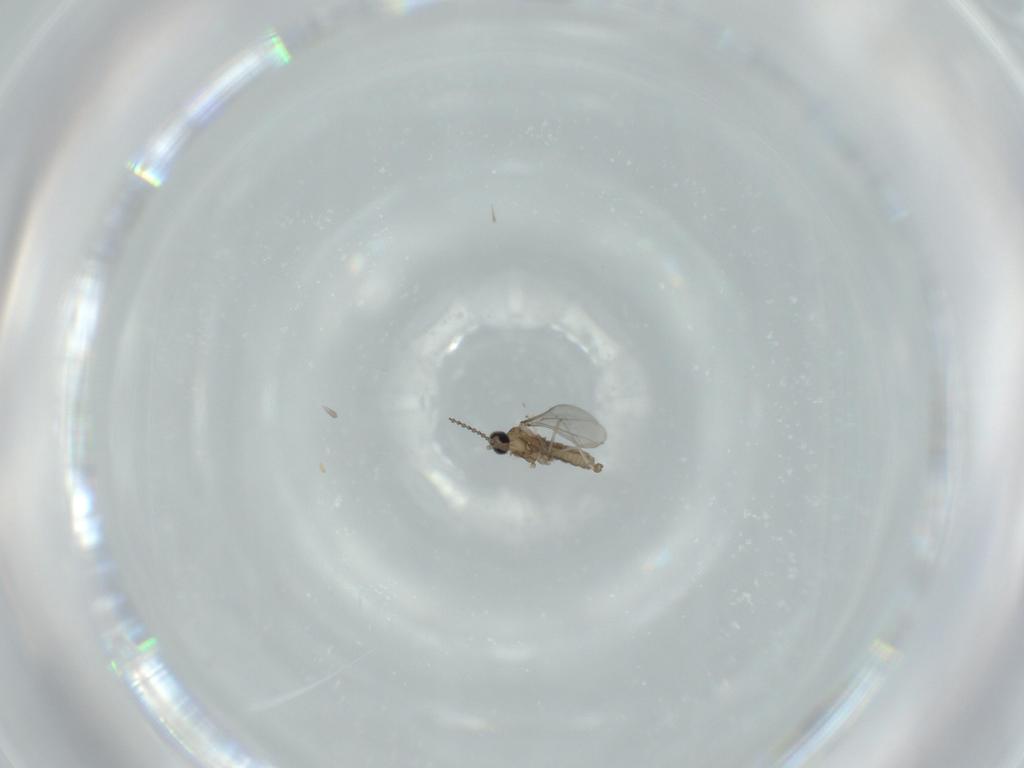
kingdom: Animalia
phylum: Arthropoda
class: Insecta
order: Diptera
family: Cecidomyiidae
